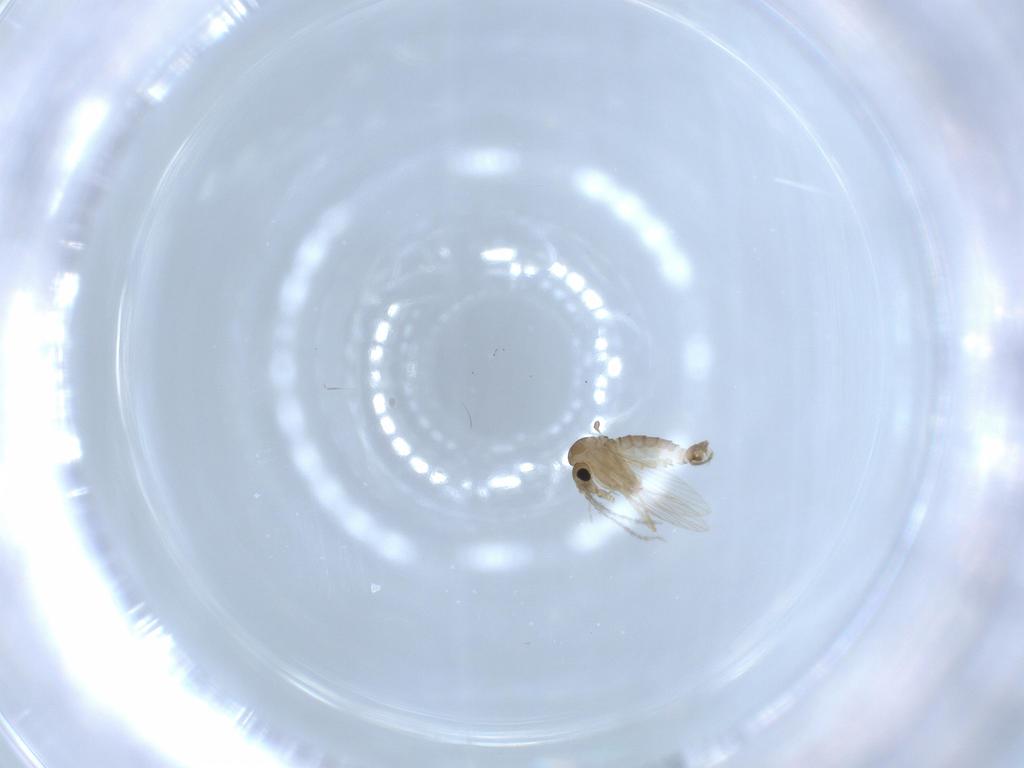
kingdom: Animalia
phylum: Arthropoda
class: Insecta
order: Diptera
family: Psychodidae
